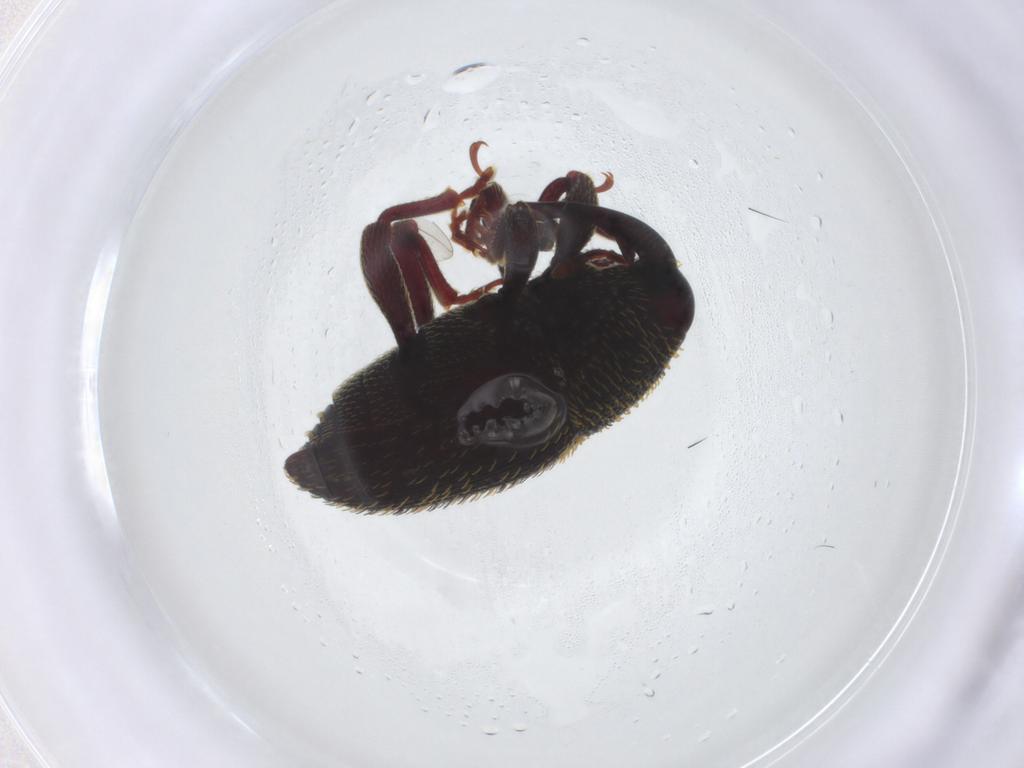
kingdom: Animalia
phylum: Arthropoda
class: Insecta
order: Coleoptera
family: Curculionidae
